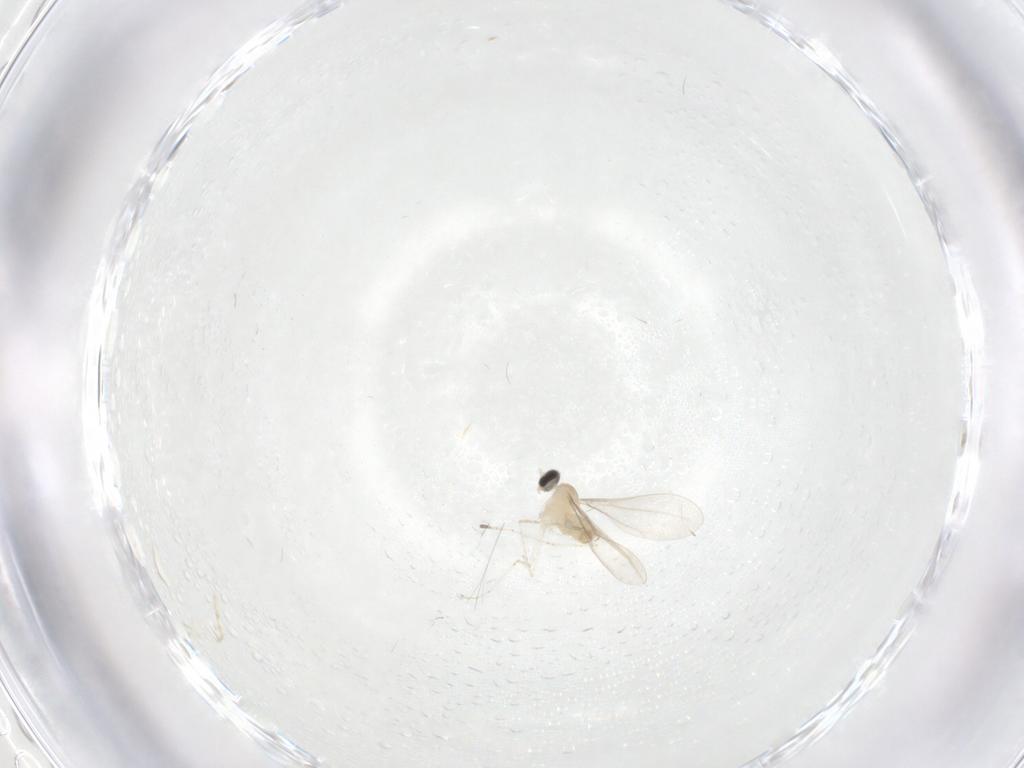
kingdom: Animalia
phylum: Arthropoda
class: Insecta
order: Diptera
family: Cecidomyiidae
